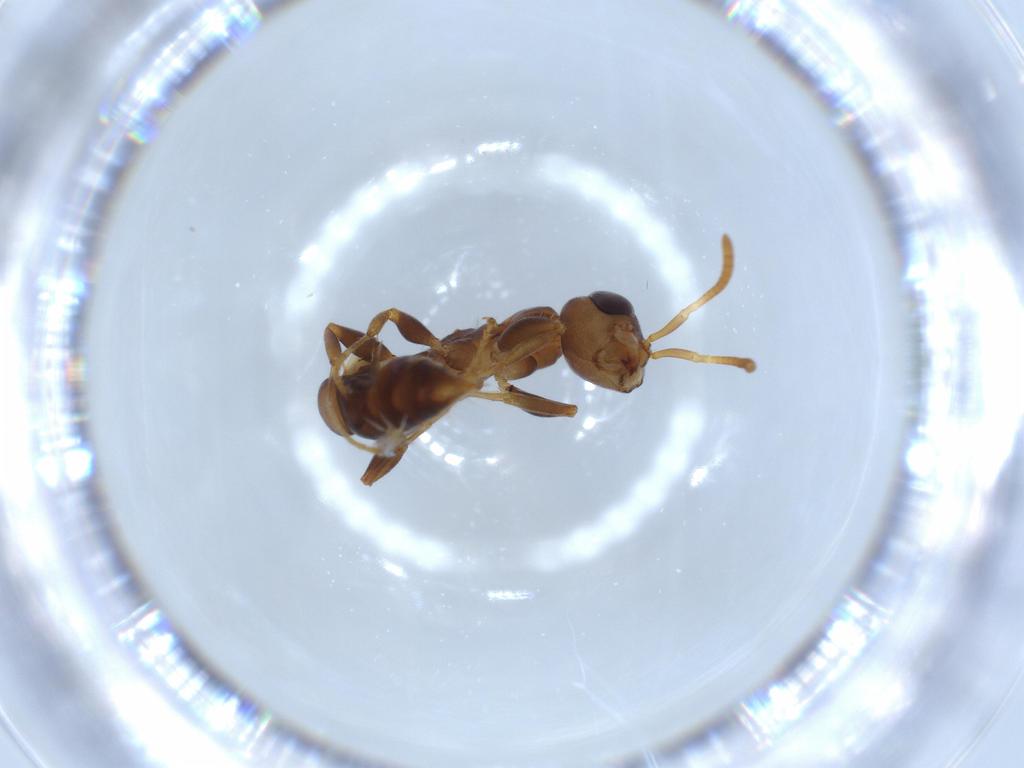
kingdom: Animalia
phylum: Arthropoda
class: Insecta
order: Hymenoptera
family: Formicidae
